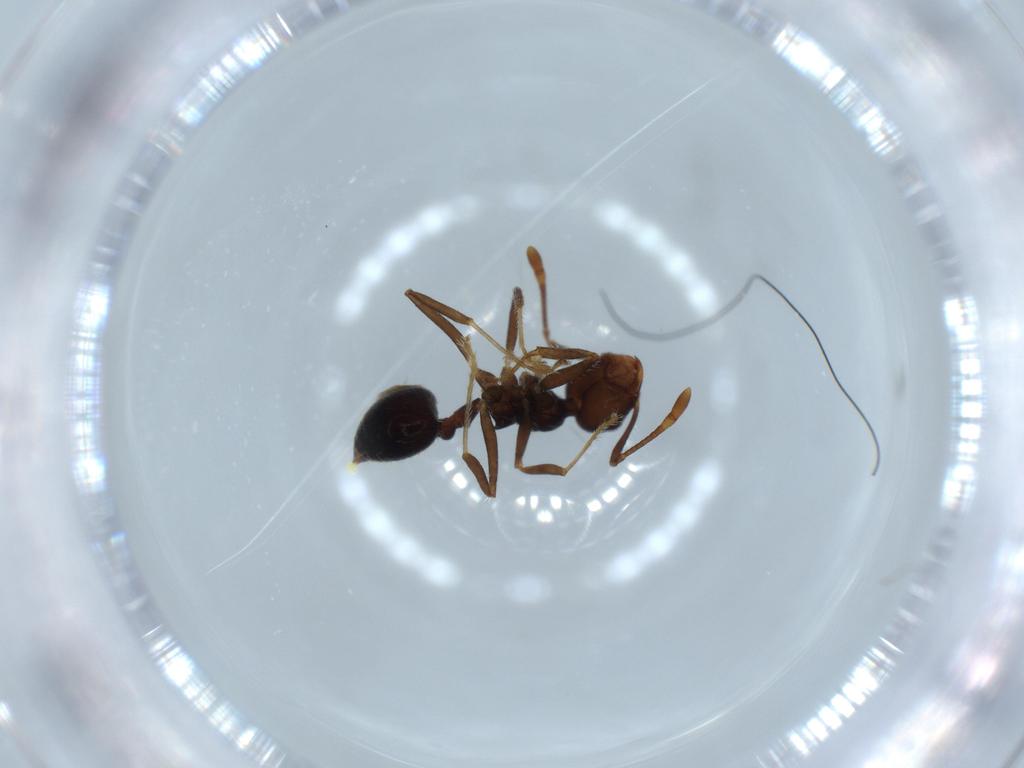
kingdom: Animalia
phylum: Arthropoda
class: Insecta
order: Hymenoptera
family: Formicidae
